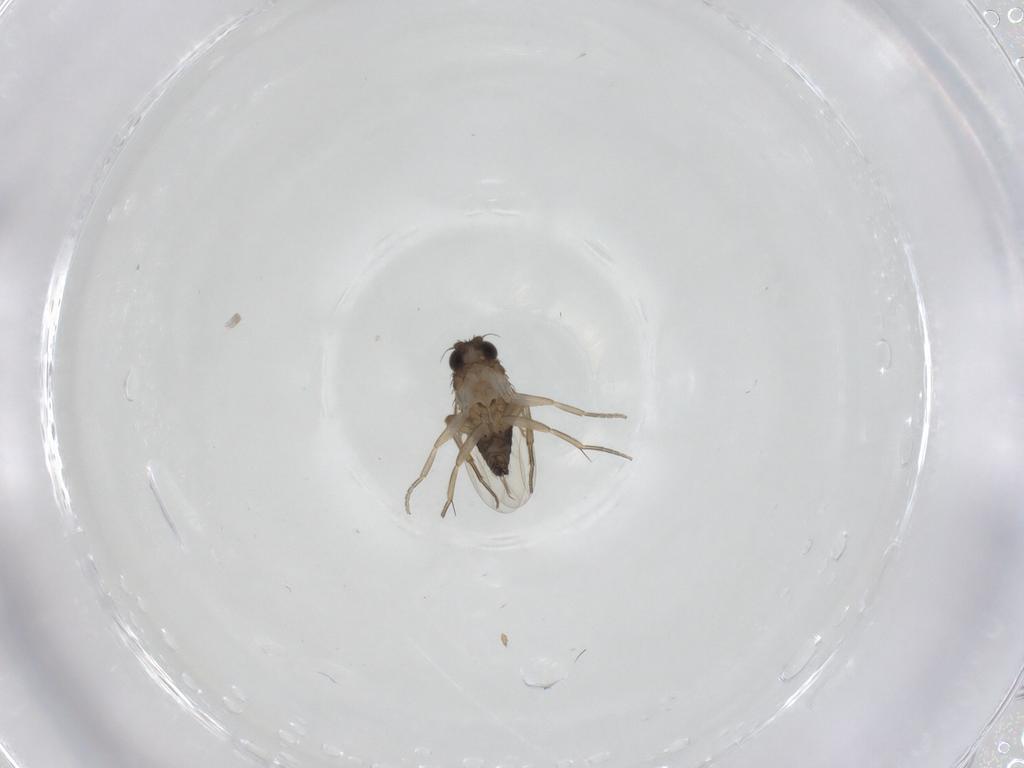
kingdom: Animalia
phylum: Arthropoda
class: Insecta
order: Diptera
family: Phoridae
